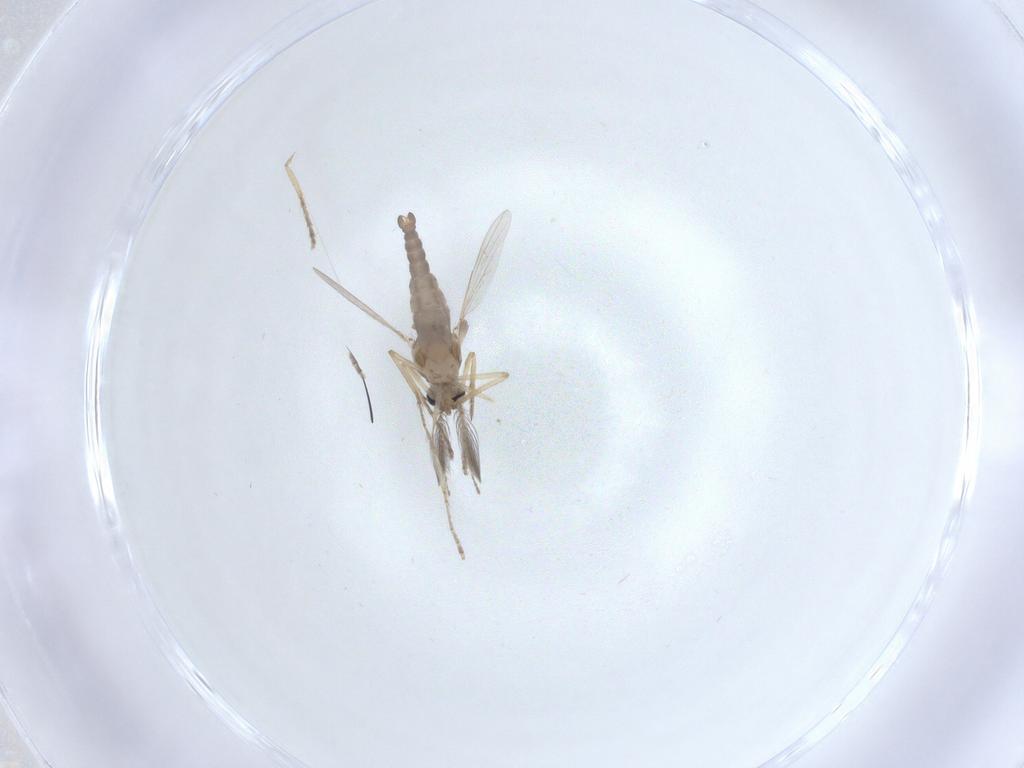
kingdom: Animalia
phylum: Arthropoda
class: Insecta
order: Diptera
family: Ceratopogonidae
